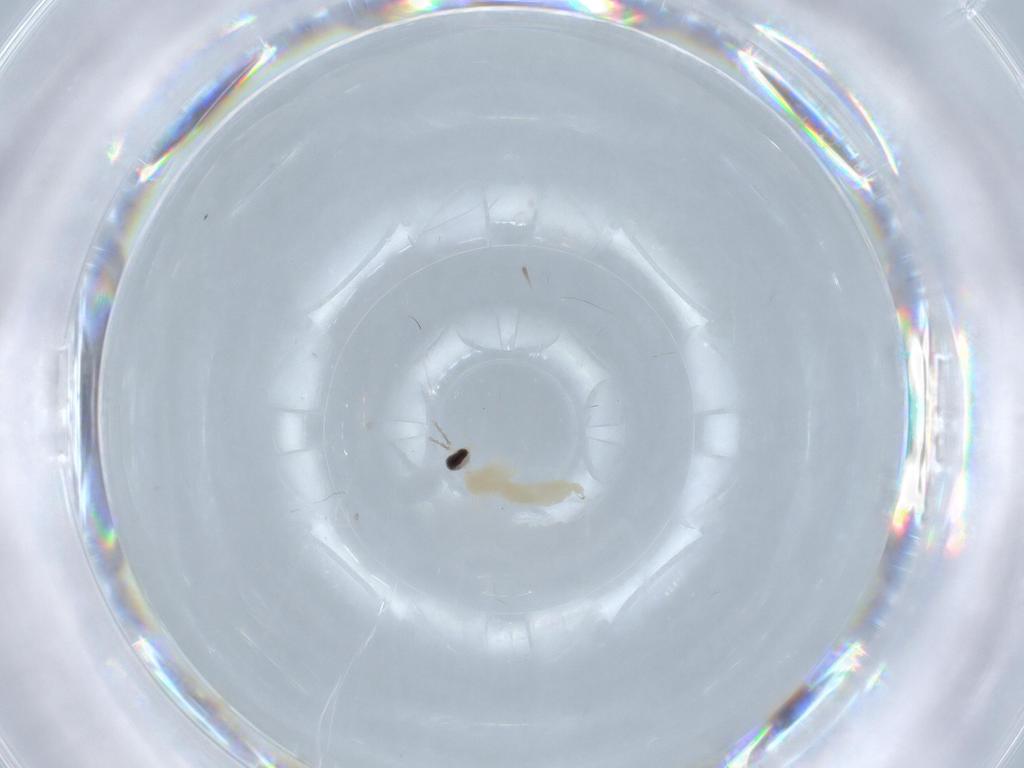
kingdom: Animalia
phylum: Arthropoda
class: Insecta
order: Diptera
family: Cecidomyiidae
